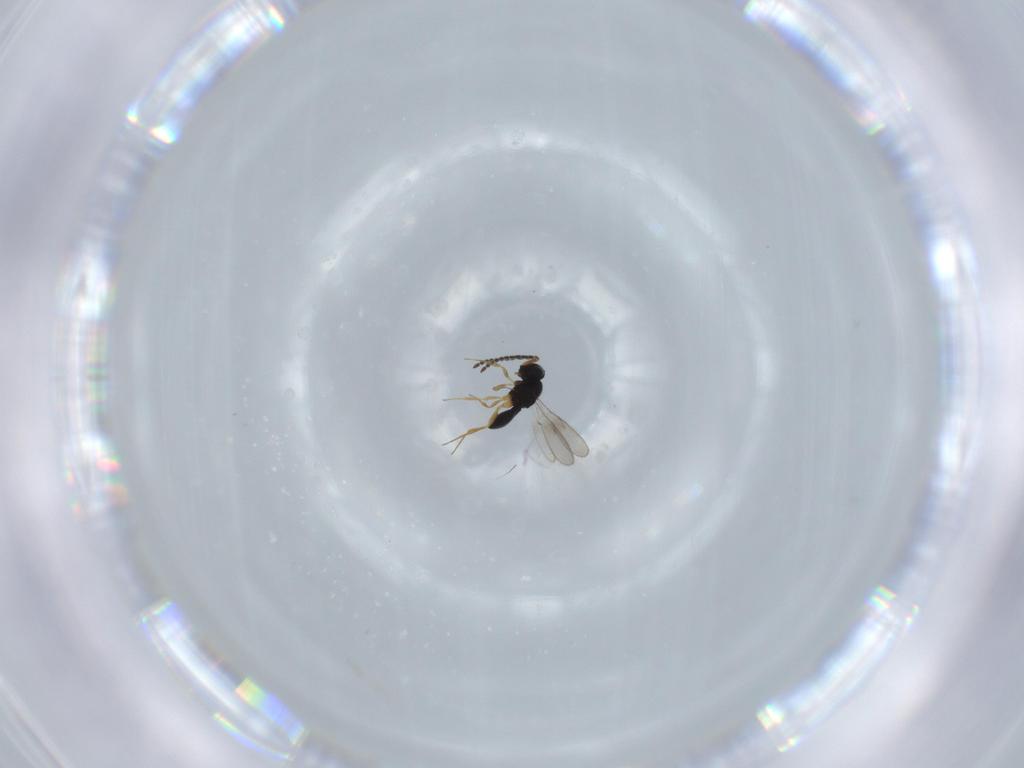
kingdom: Animalia
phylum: Arthropoda
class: Insecta
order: Hymenoptera
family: Scelionidae
